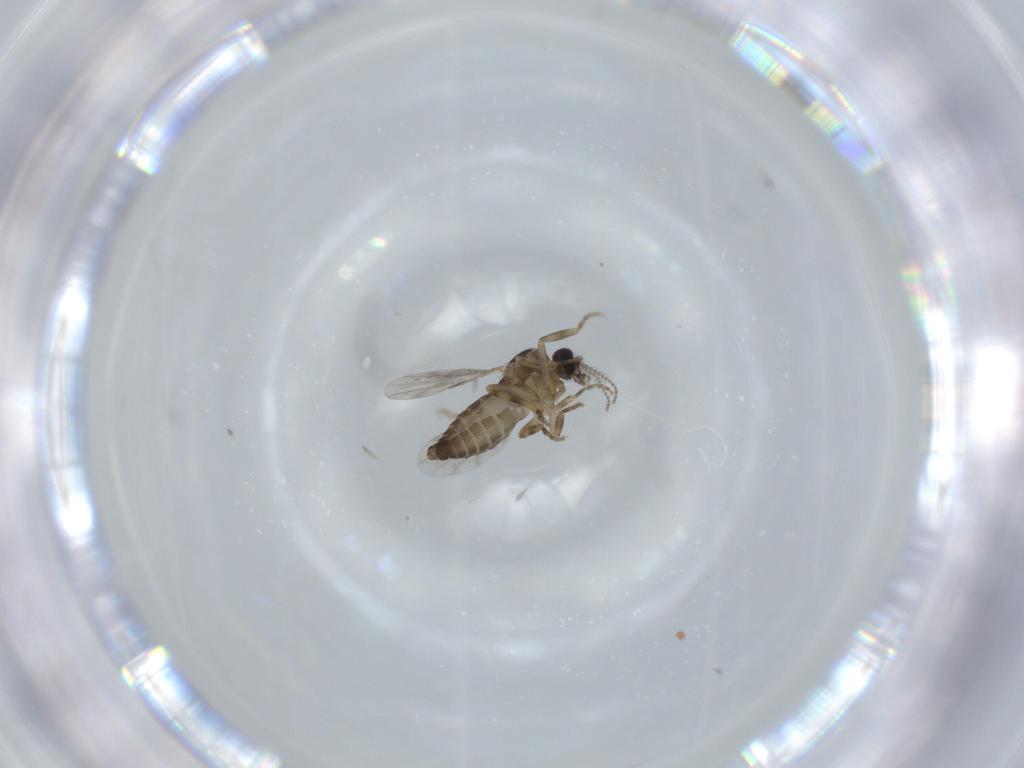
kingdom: Animalia
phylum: Arthropoda
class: Insecta
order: Diptera
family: Ceratopogonidae
